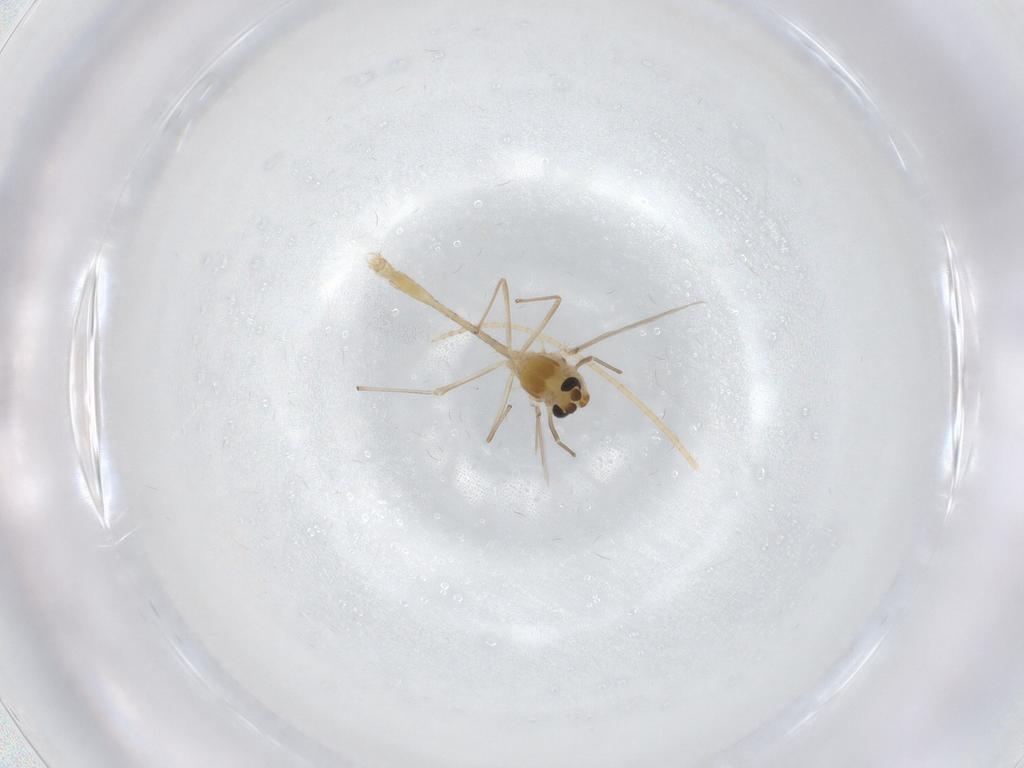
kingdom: Animalia
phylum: Arthropoda
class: Insecta
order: Diptera
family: Chironomidae
